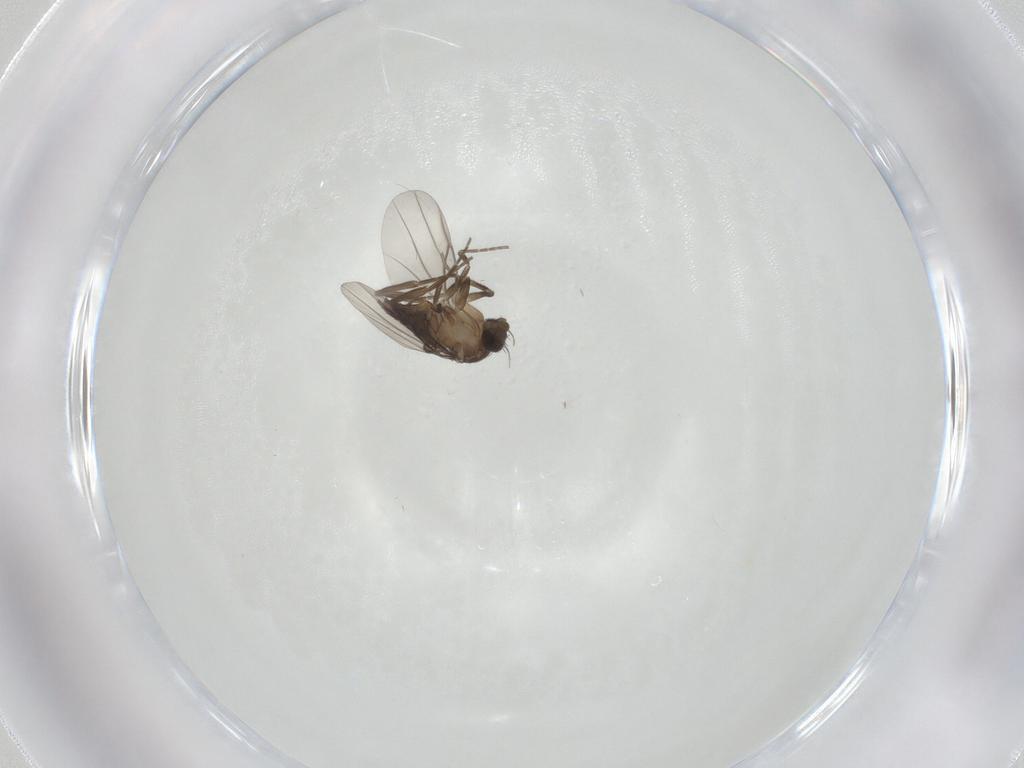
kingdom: Animalia
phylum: Arthropoda
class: Insecta
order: Diptera
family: Phoridae
